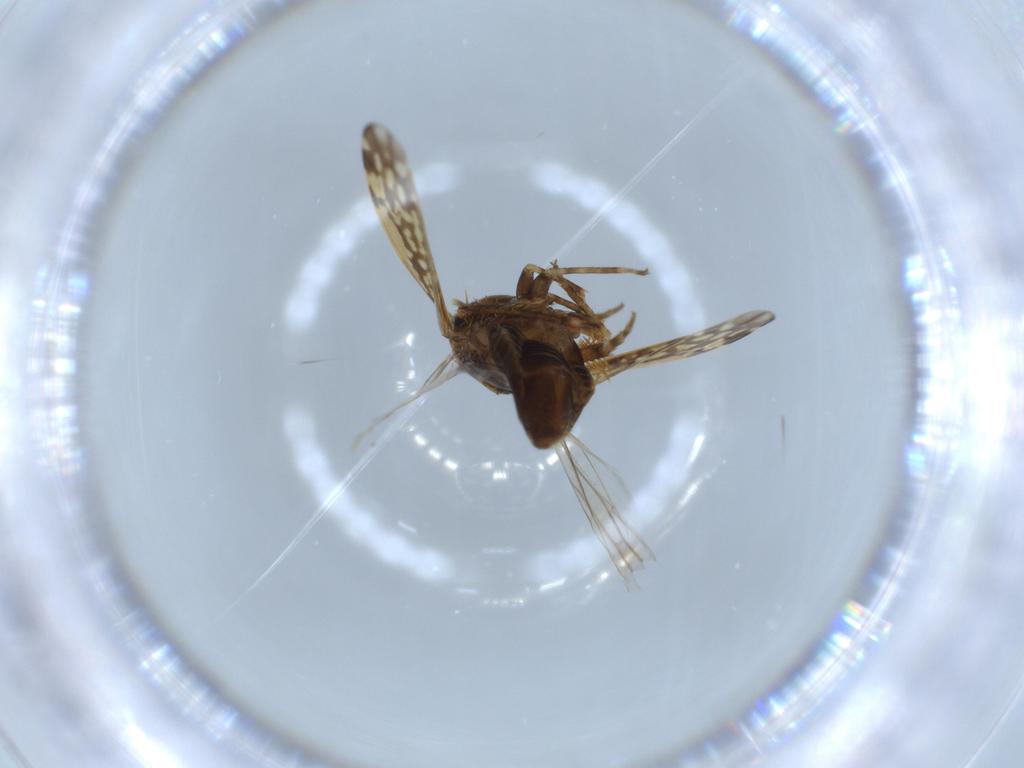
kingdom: Animalia
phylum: Arthropoda
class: Insecta
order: Hemiptera
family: Cicadellidae
